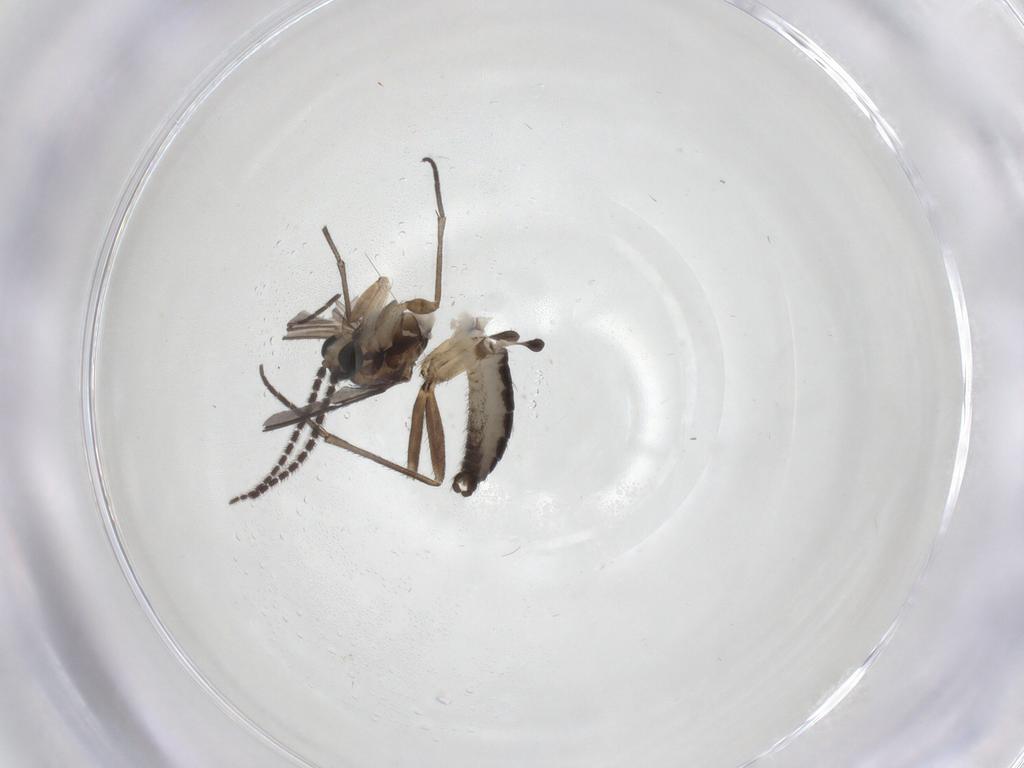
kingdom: Animalia
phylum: Arthropoda
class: Insecta
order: Diptera
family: Sciaridae
